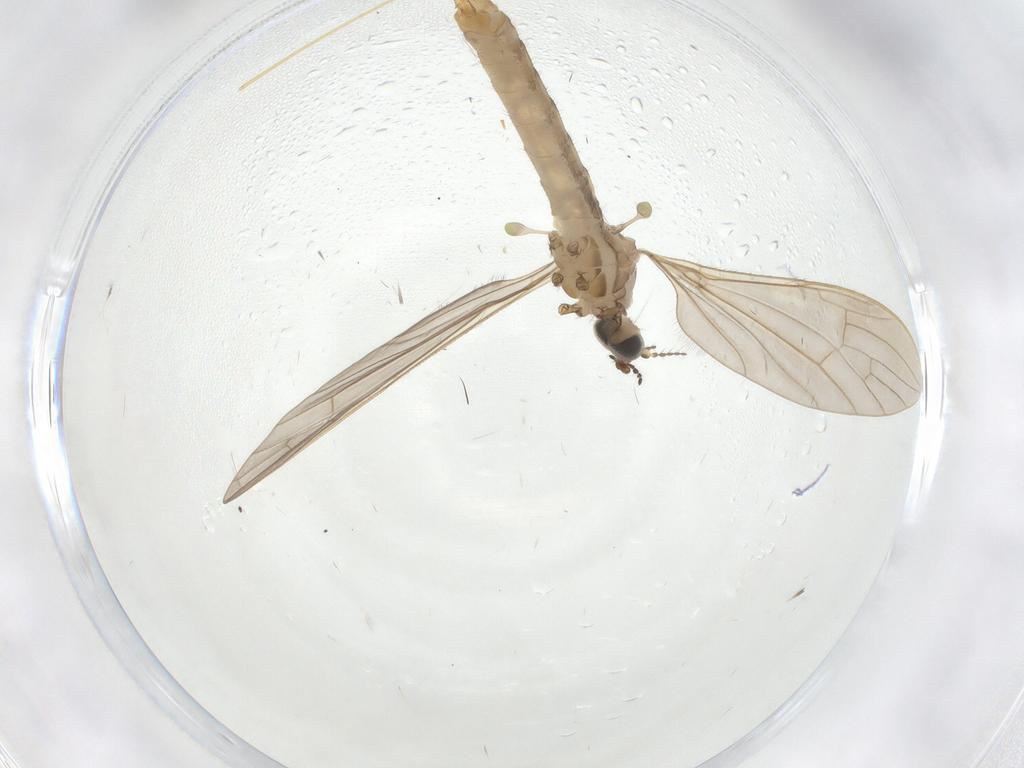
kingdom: Animalia
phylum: Arthropoda
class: Insecta
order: Diptera
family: Limoniidae
